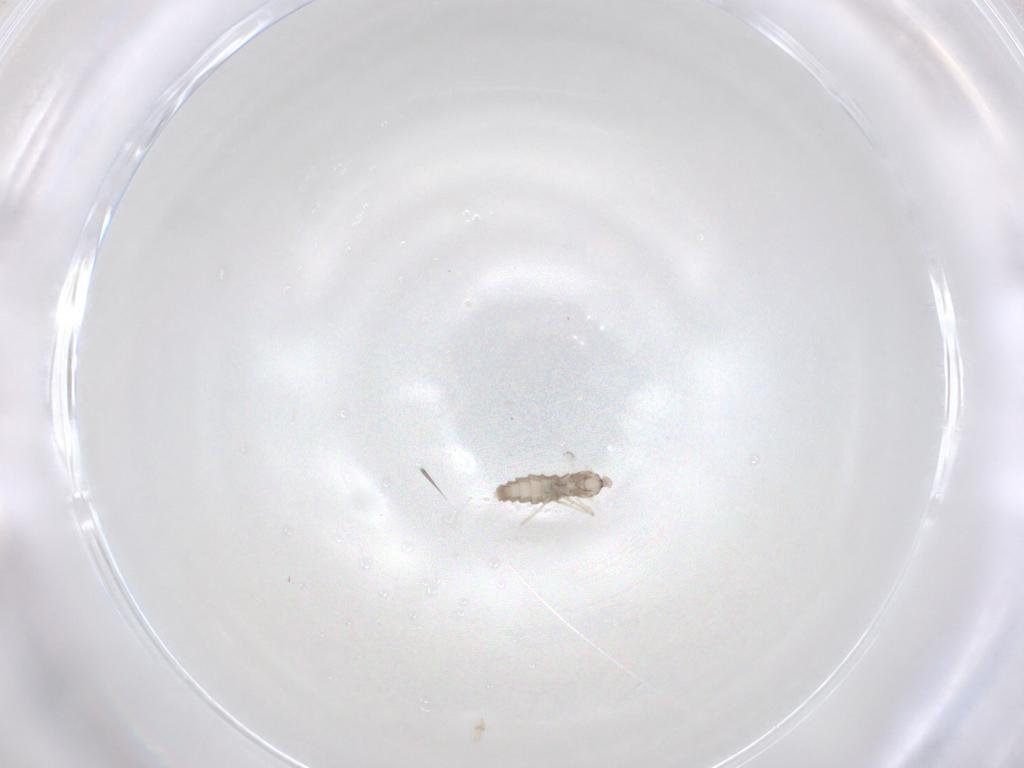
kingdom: Animalia
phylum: Arthropoda
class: Insecta
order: Diptera
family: Cecidomyiidae
